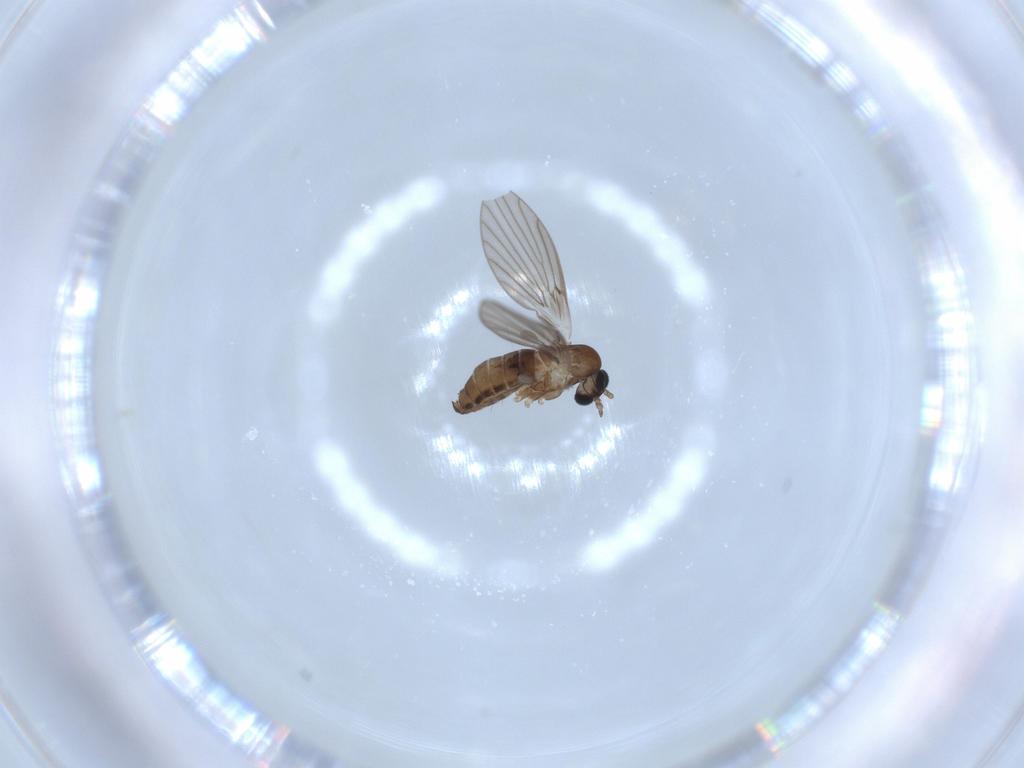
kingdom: Animalia
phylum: Arthropoda
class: Insecta
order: Diptera
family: Psychodidae
